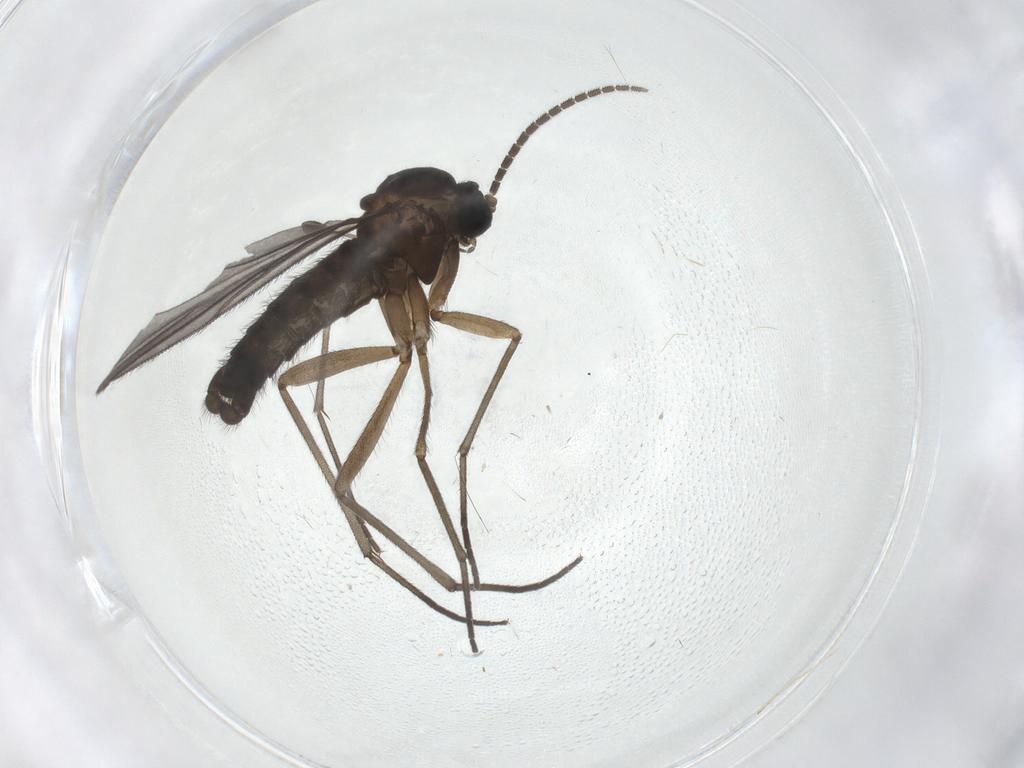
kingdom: Animalia
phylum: Arthropoda
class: Insecta
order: Diptera
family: Sciaridae
